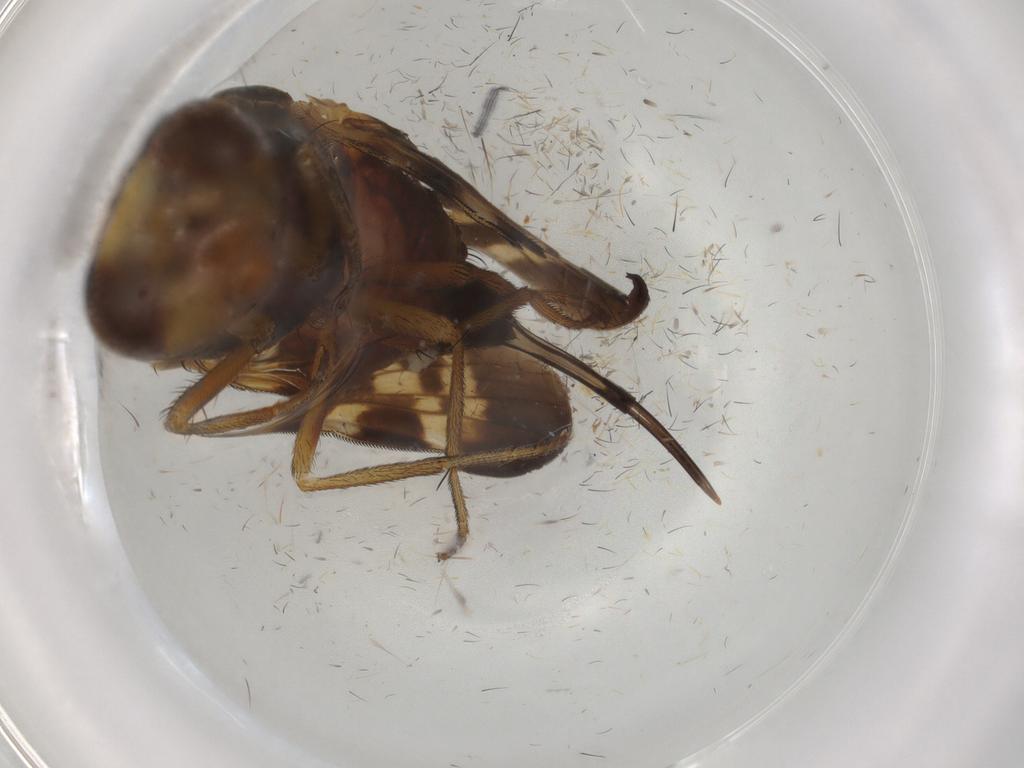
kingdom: Animalia
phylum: Arthropoda
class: Insecta
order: Diptera
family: Ulidiidae
